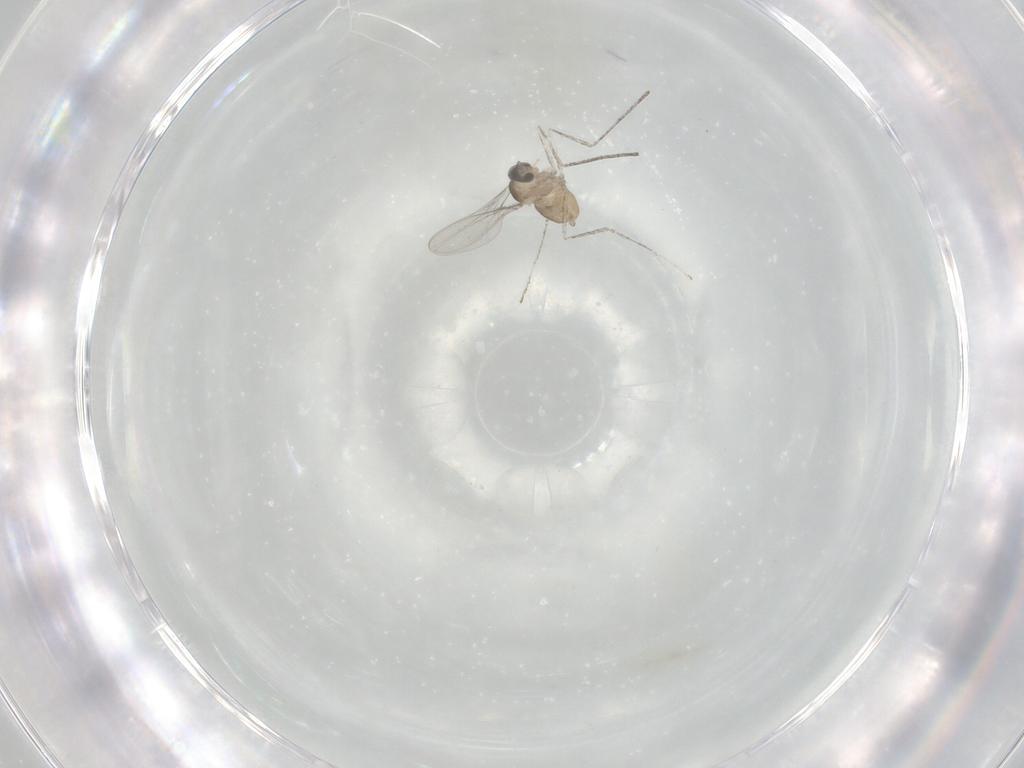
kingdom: Animalia
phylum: Arthropoda
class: Insecta
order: Diptera
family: Cecidomyiidae
